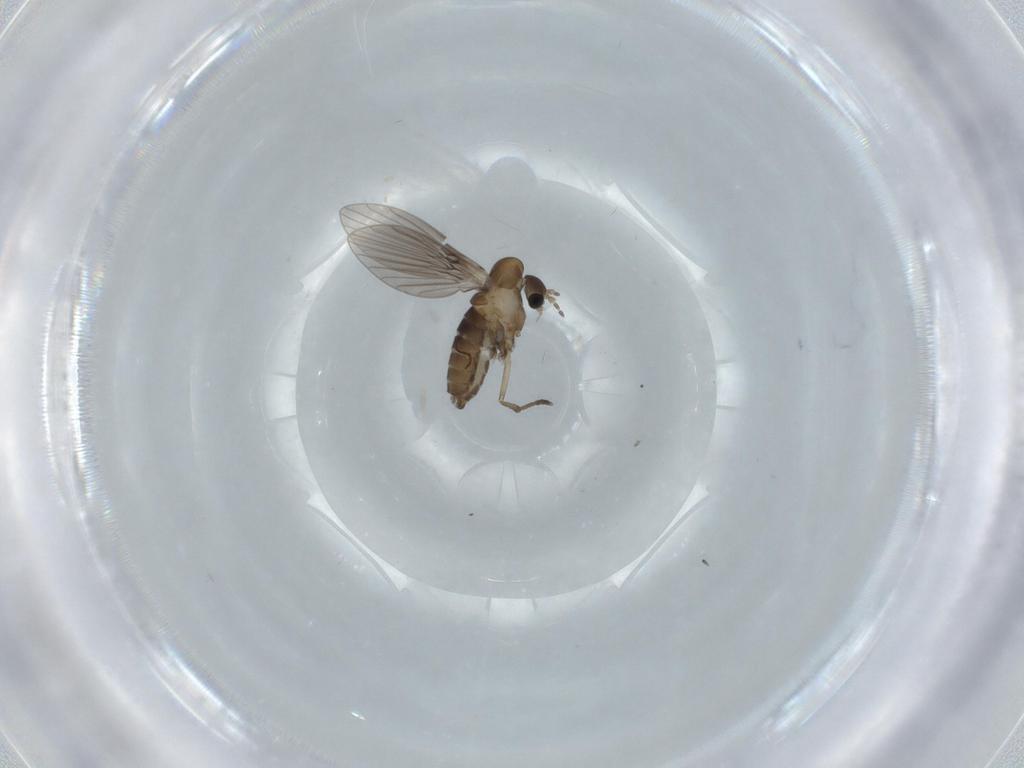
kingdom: Animalia
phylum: Arthropoda
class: Insecta
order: Diptera
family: Psychodidae
